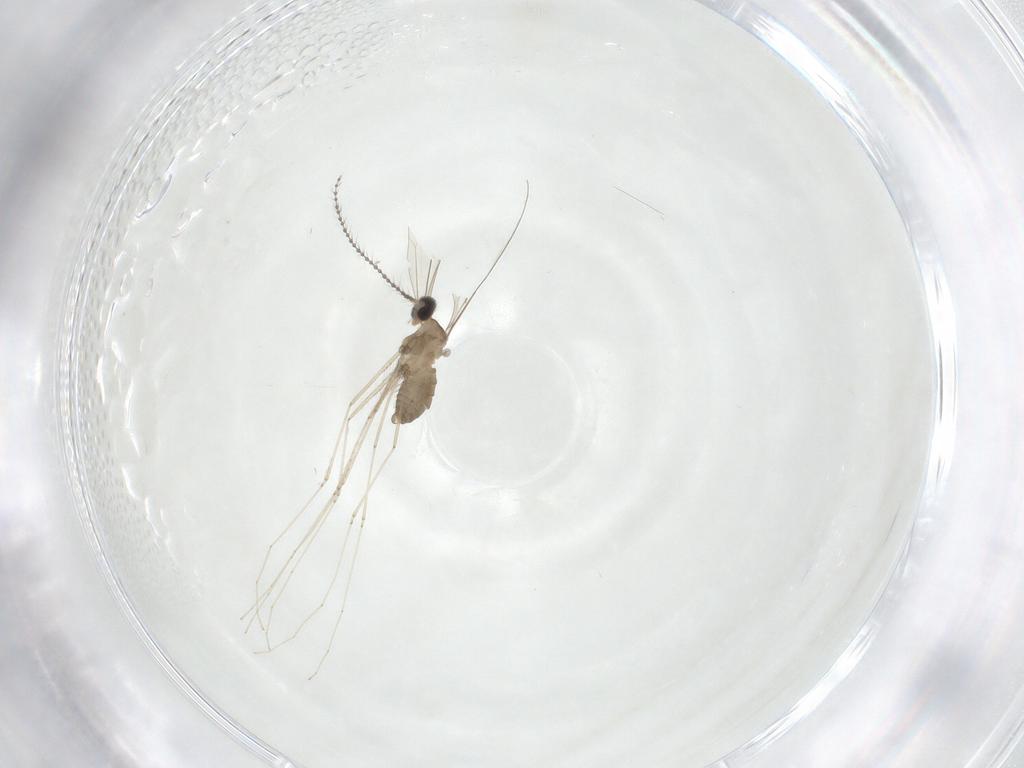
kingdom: Animalia
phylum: Arthropoda
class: Insecta
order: Diptera
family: Cecidomyiidae
